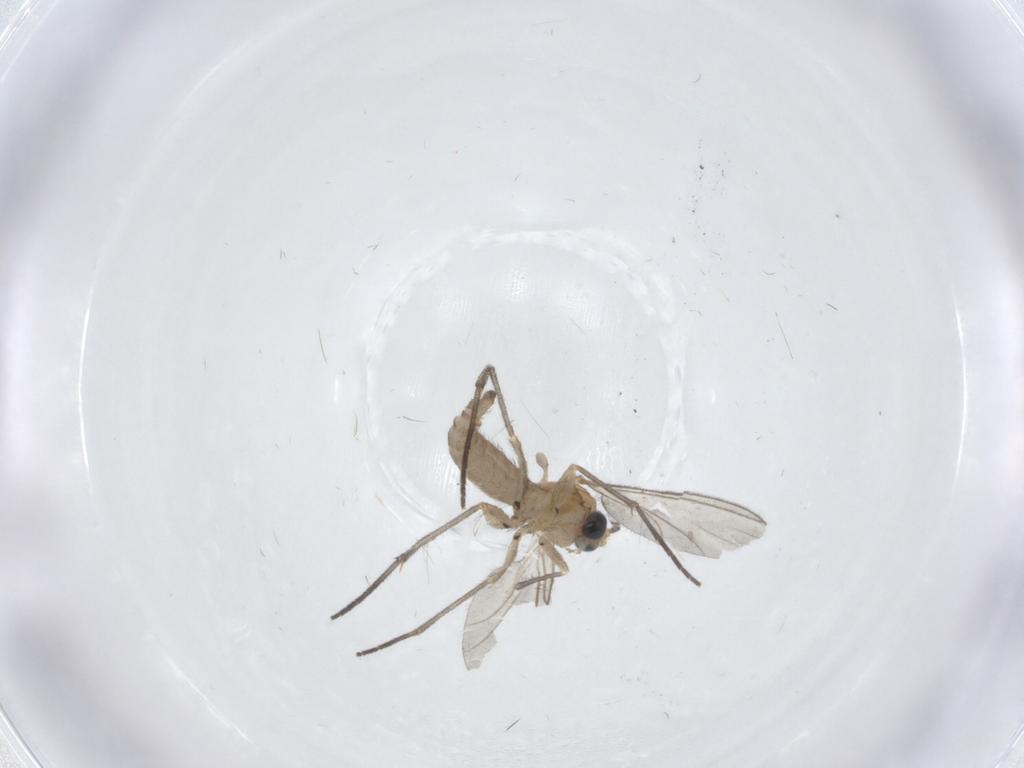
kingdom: Animalia
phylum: Arthropoda
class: Insecta
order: Diptera
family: Sciaridae
